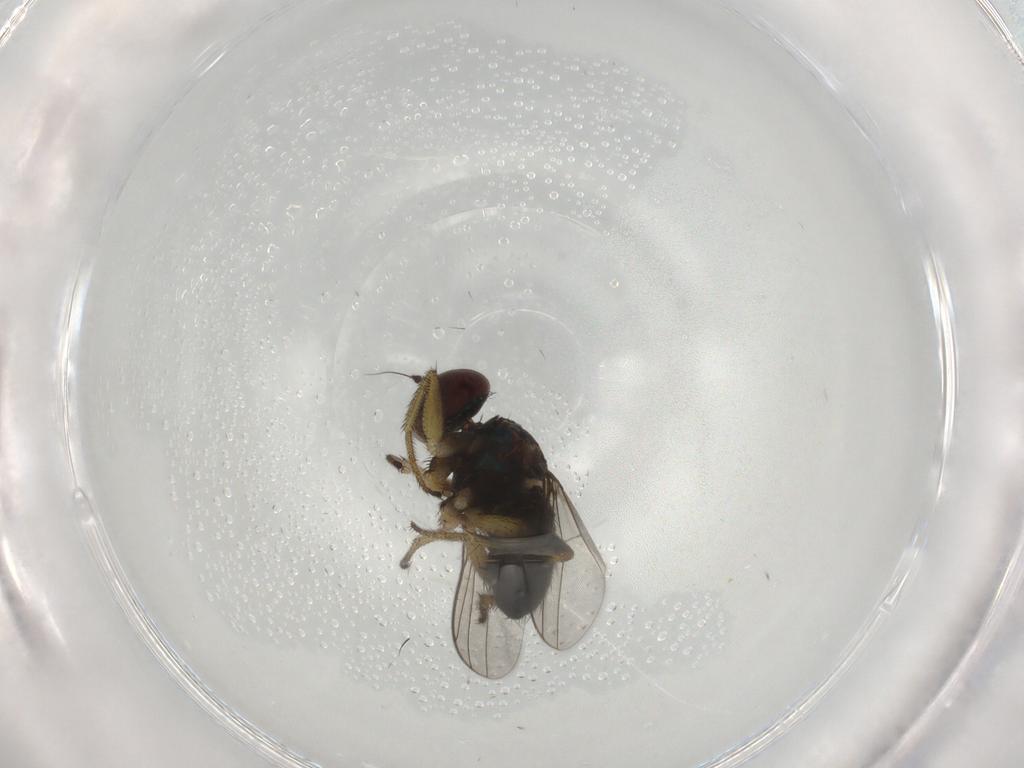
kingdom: Animalia
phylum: Arthropoda
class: Insecta
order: Diptera
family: Dolichopodidae
